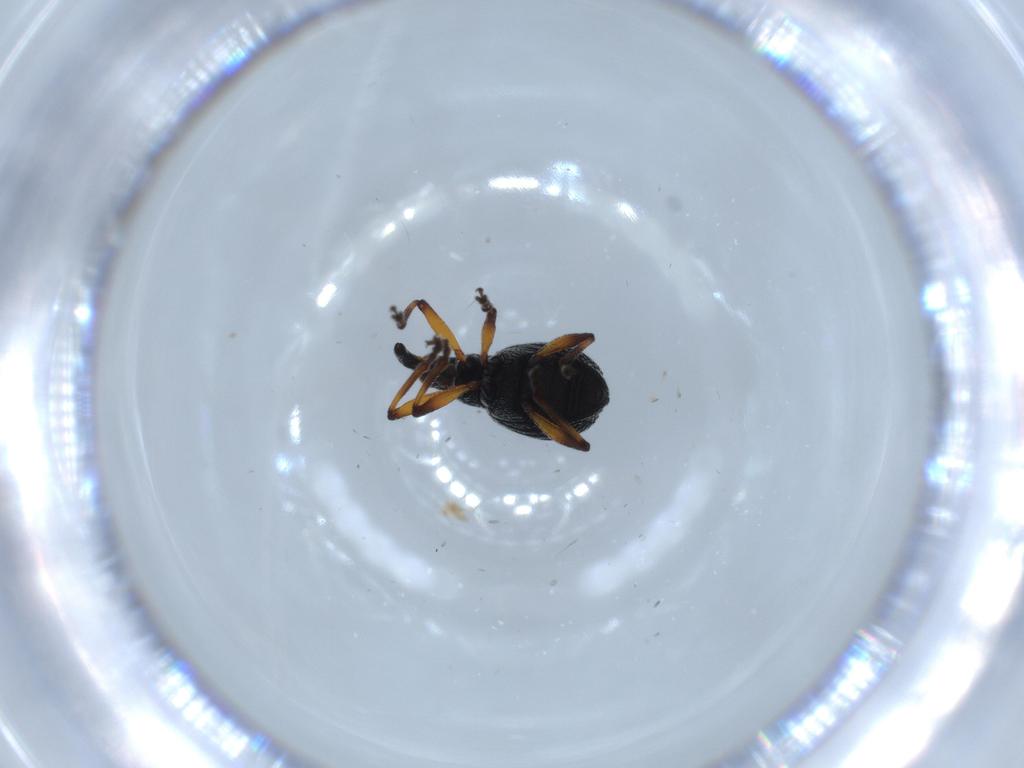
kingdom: Animalia
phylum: Arthropoda
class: Insecta
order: Coleoptera
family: Brentidae
